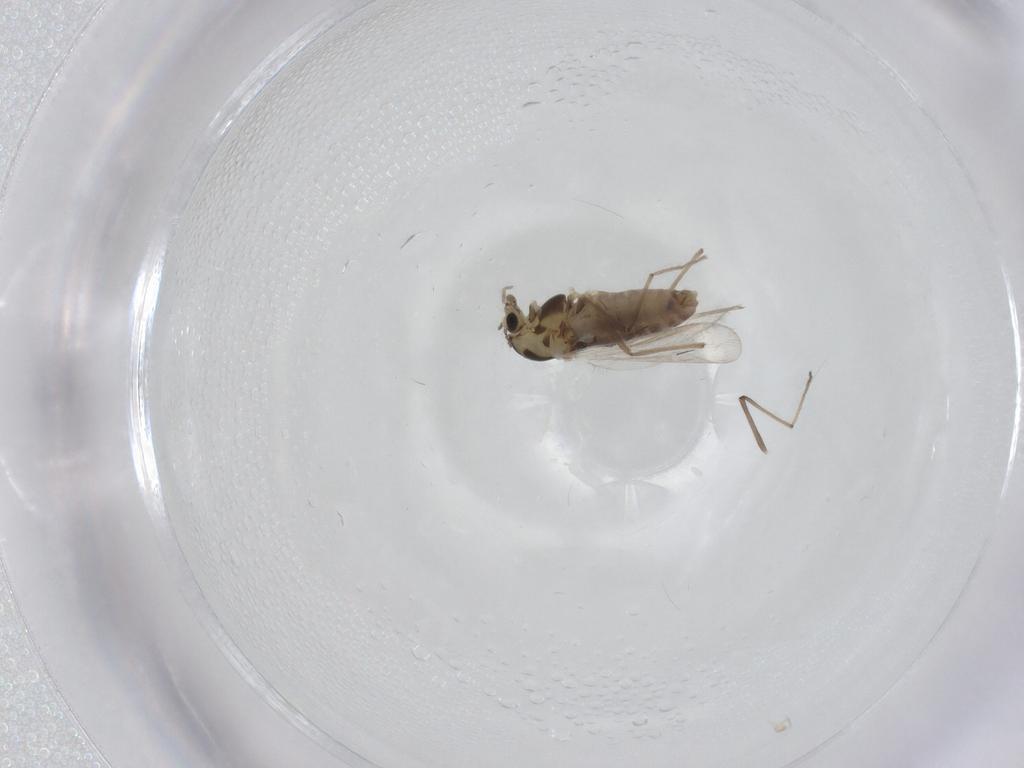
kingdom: Animalia
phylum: Arthropoda
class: Insecta
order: Diptera
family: Chironomidae
